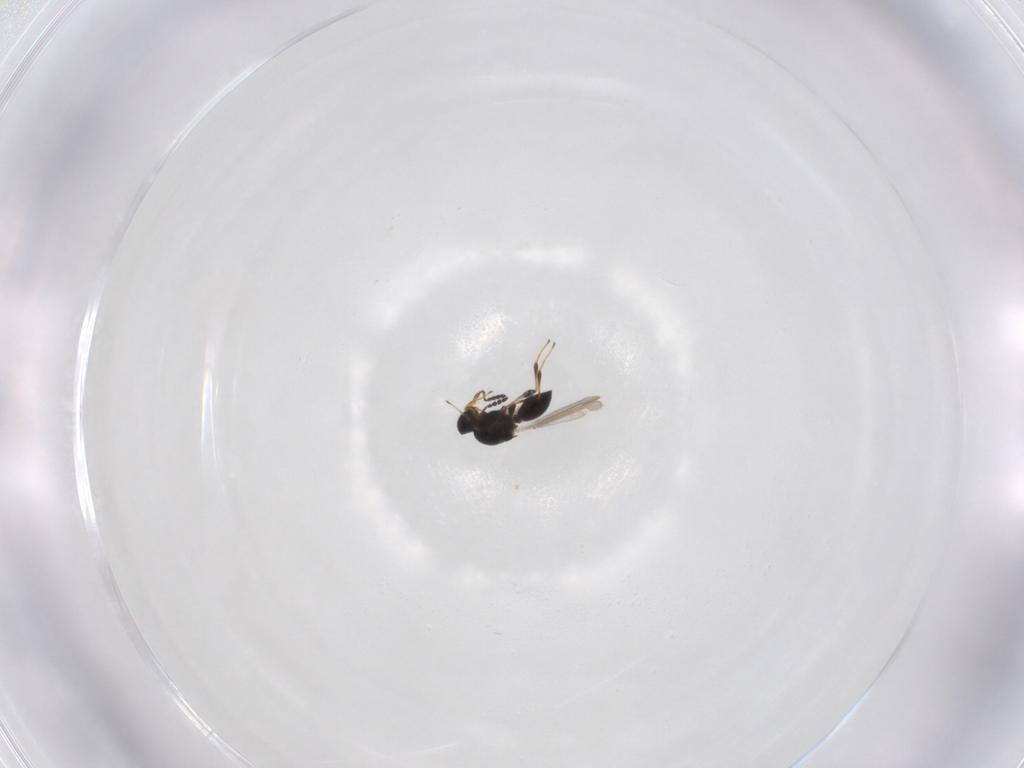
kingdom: Animalia
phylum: Arthropoda
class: Insecta
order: Hymenoptera
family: Platygastridae
